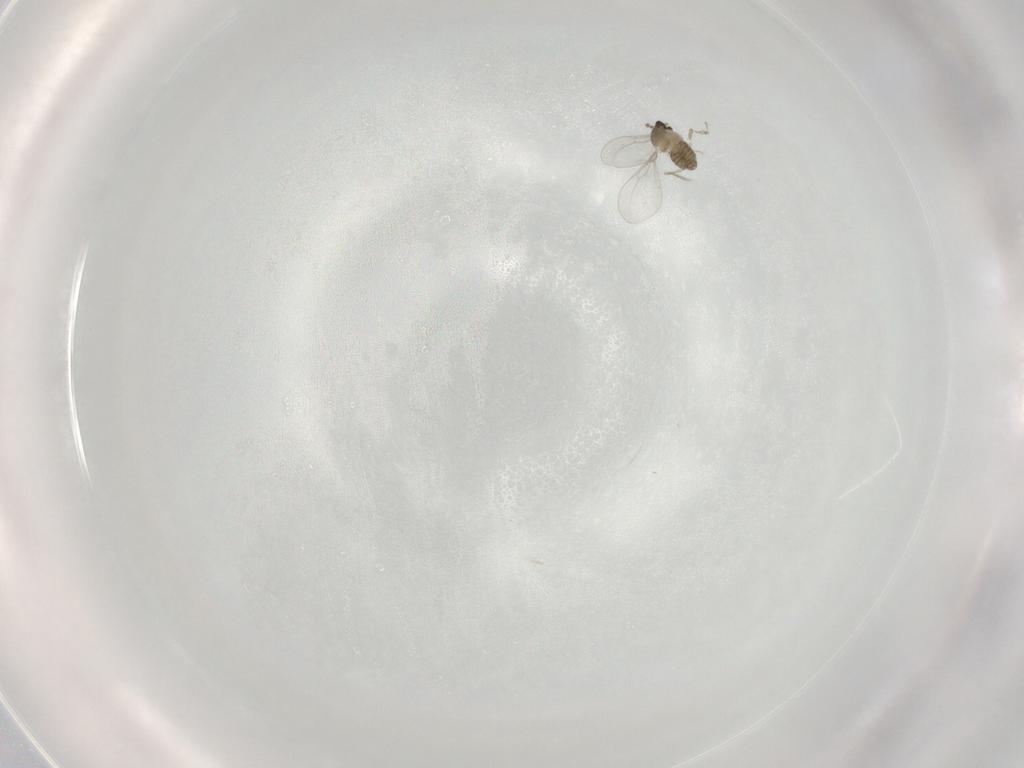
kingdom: Animalia
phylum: Arthropoda
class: Insecta
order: Diptera
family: Cecidomyiidae
